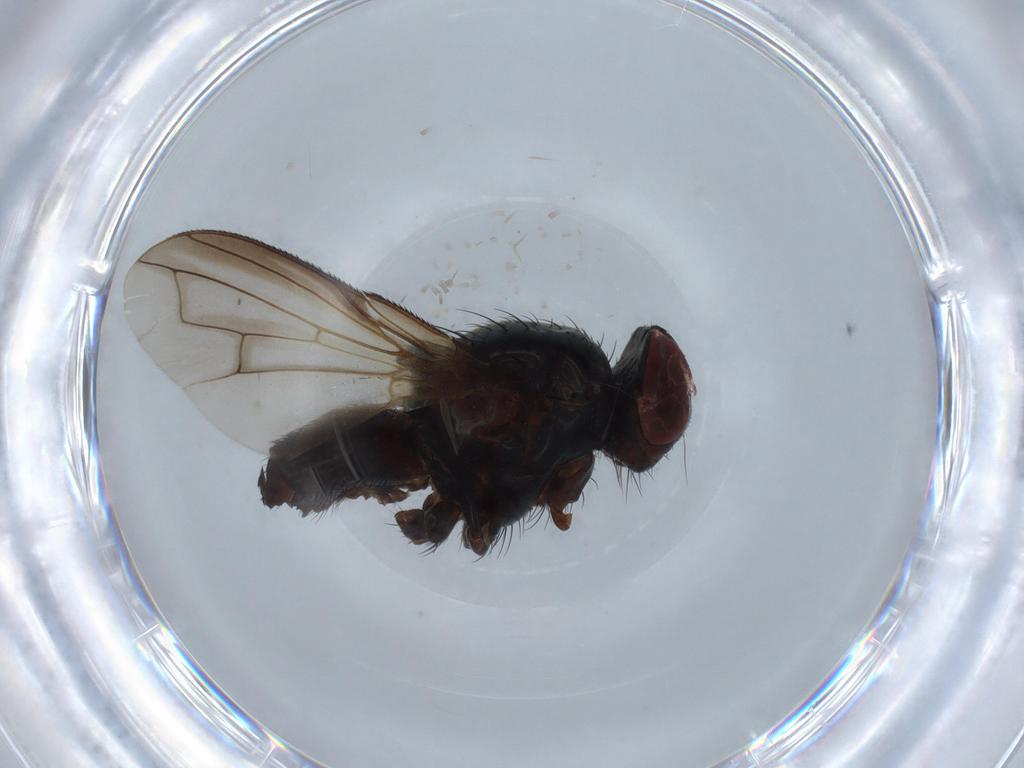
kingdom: Animalia
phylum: Arthropoda
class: Insecta
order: Diptera
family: Tachinidae
